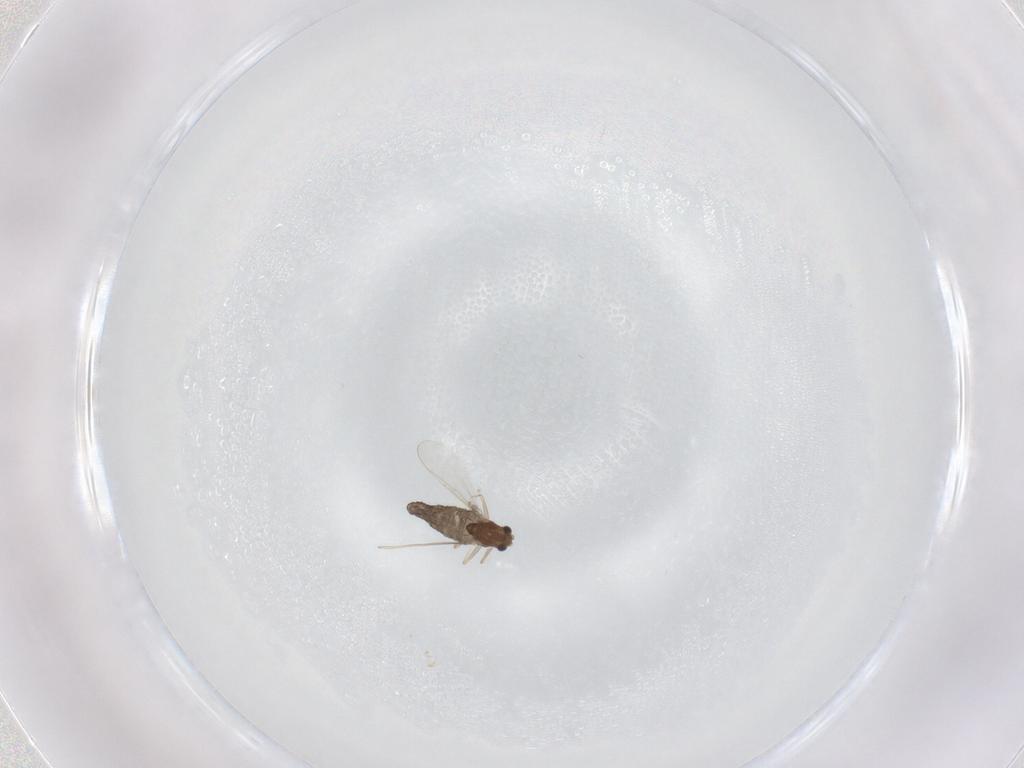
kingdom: Animalia
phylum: Arthropoda
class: Insecta
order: Diptera
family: Chironomidae
